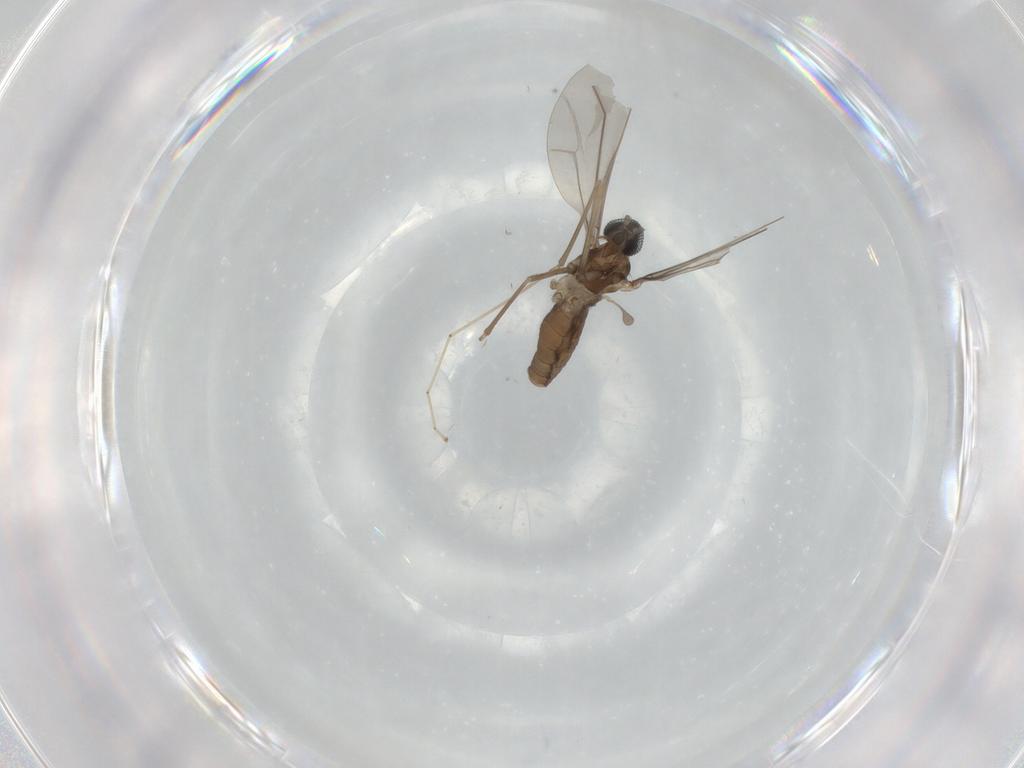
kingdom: Animalia
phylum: Arthropoda
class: Insecta
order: Diptera
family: Cecidomyiidae
